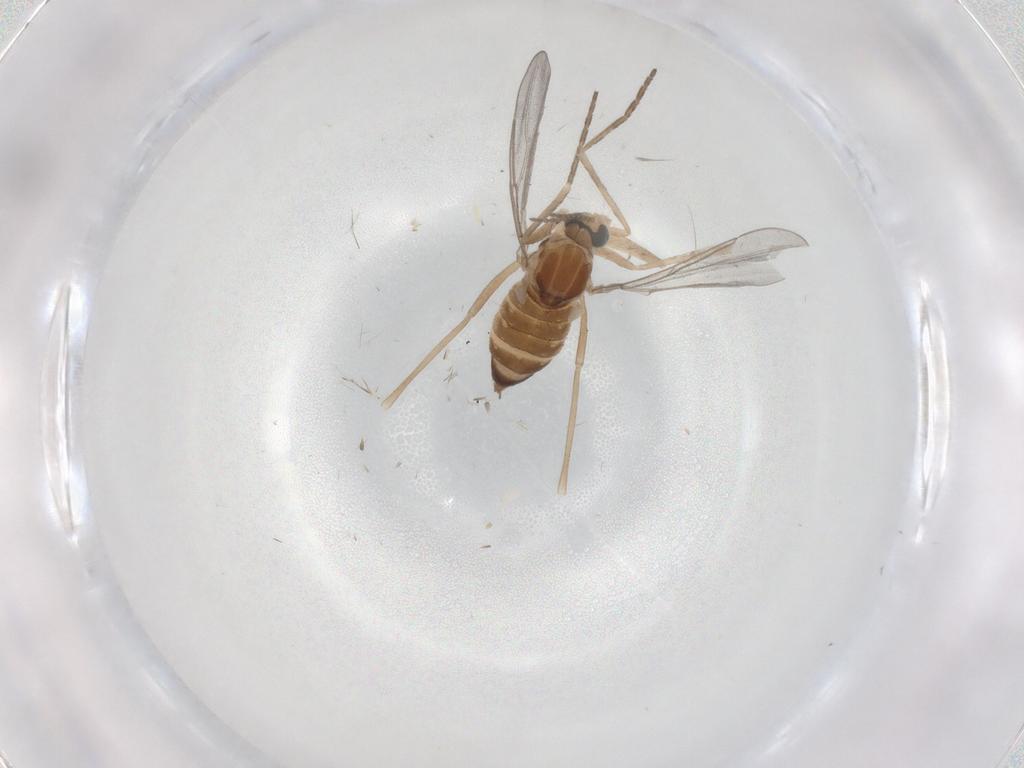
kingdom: Animalia
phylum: Arthropoda
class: Insecta
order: Diptera
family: Cecidomyiidae
